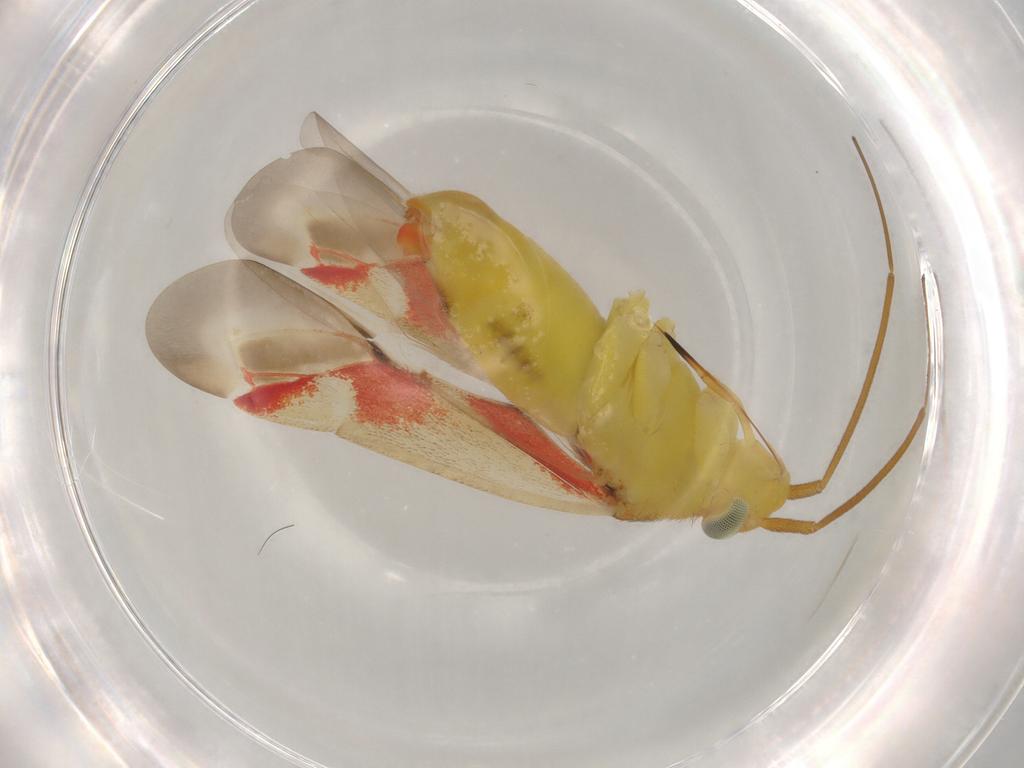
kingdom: Animalia
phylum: Arthropoda
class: Insecta
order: Hemiptera
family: Miridae
